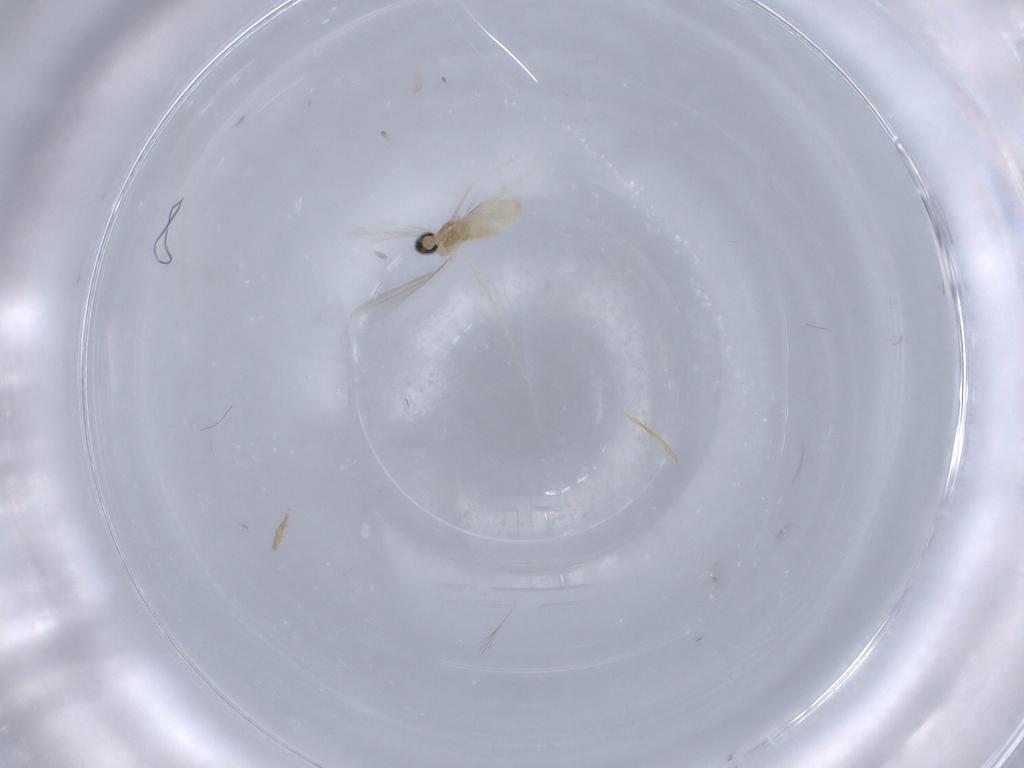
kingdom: Animalia
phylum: Arthropoda
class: Insecta
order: Diptera
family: Cecidomyiidae
